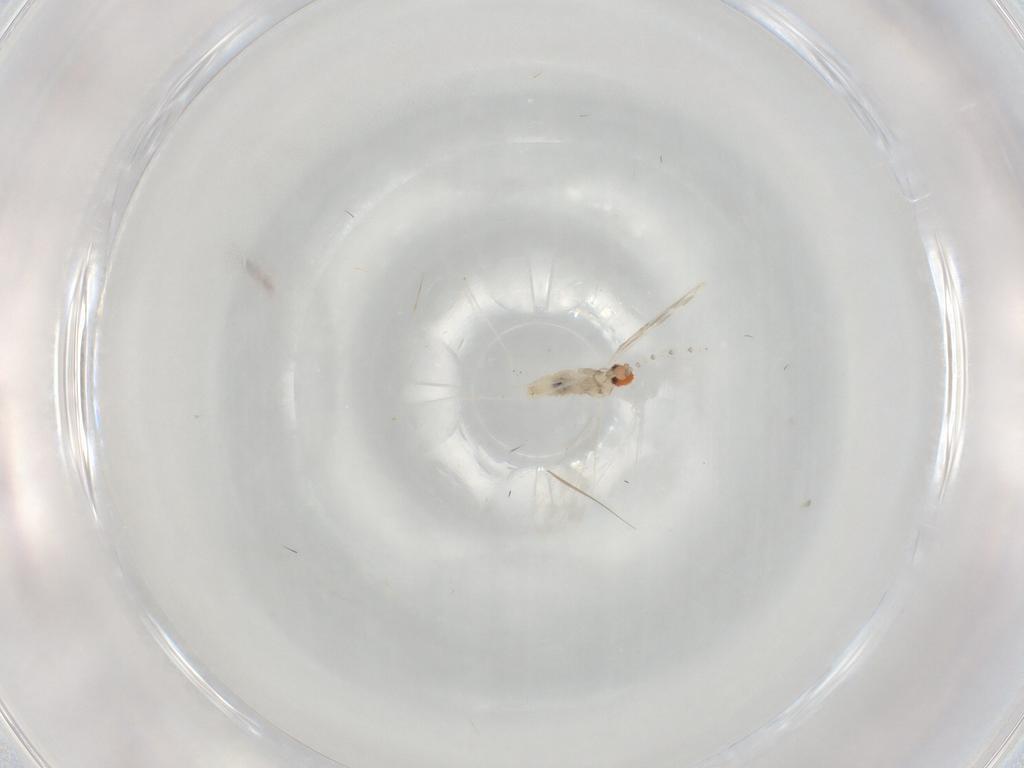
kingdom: Animalia
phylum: Arthropoda
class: Insecta
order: Diptera
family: Cecidomyiidae
